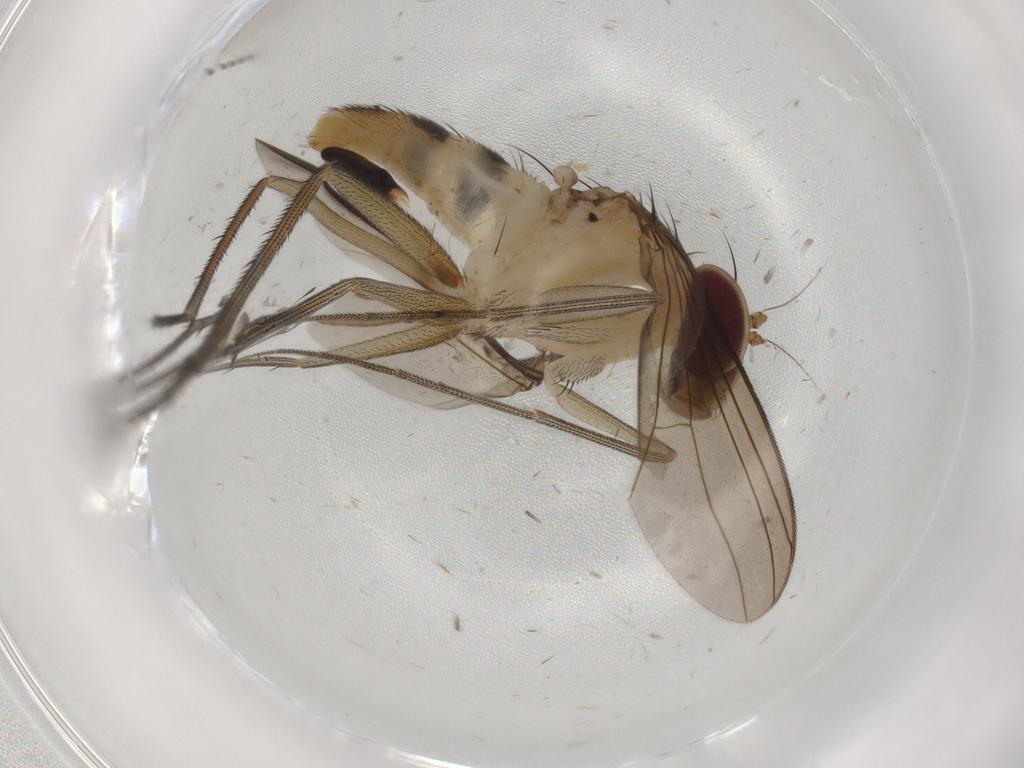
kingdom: Animalia
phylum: Arthropoda
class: Insecta
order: Diptera
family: Dolichopodidae
